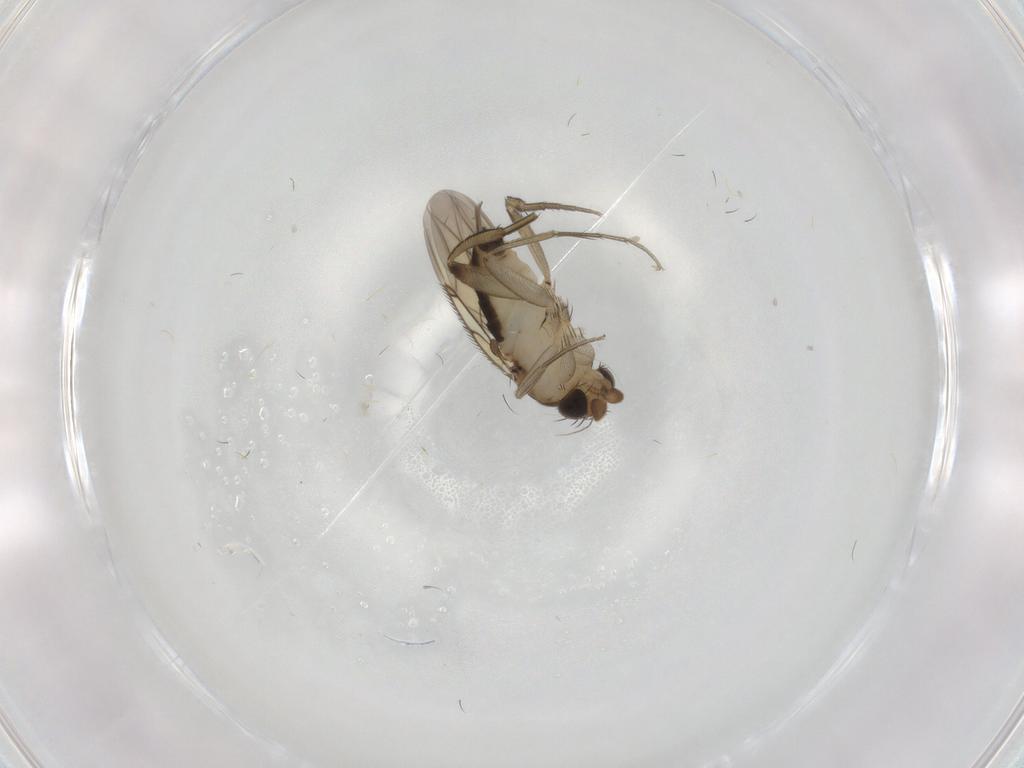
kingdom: Animalia
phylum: Arthropoda
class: Insecta
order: Diptera
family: Phoridae
